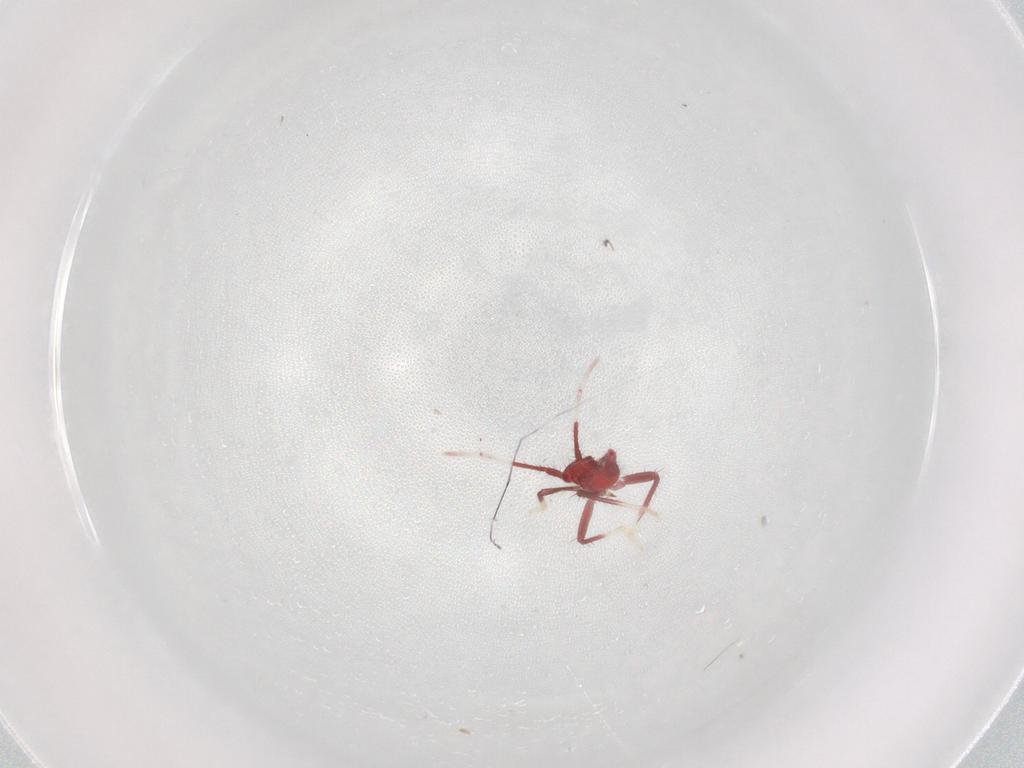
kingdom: Animalia
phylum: Arthropoda
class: Insecta
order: Hemiptera
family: Miridae
